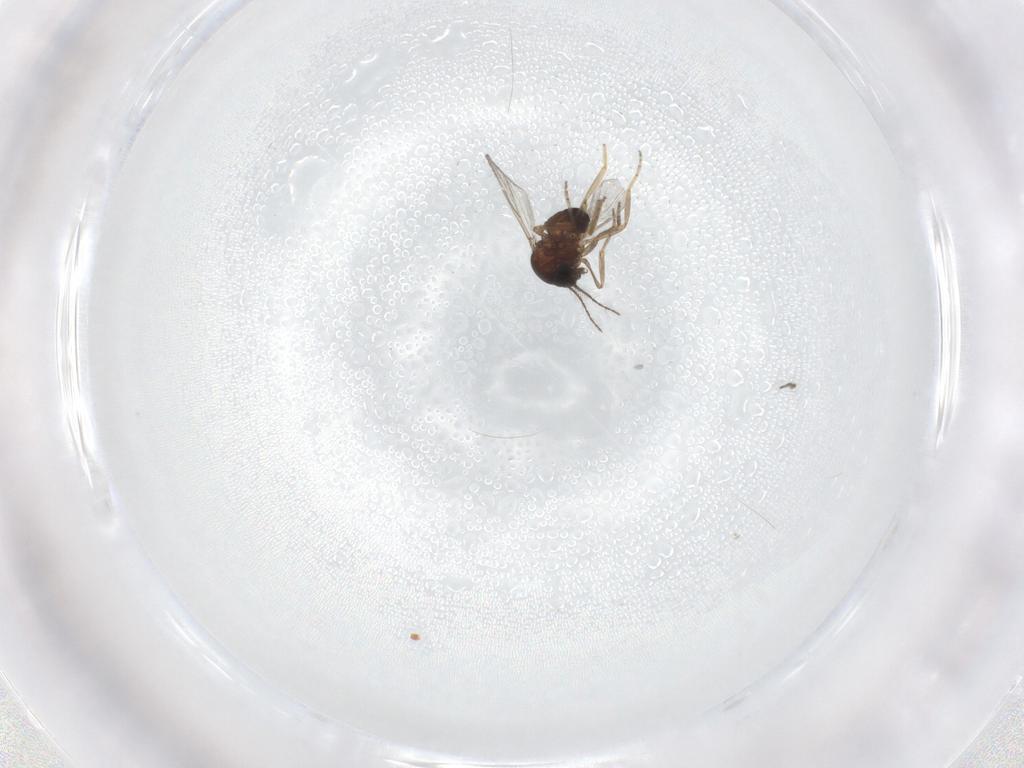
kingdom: Animalia
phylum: Arthropoda
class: Insecta
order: Diptera
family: Ceratopogonidae
